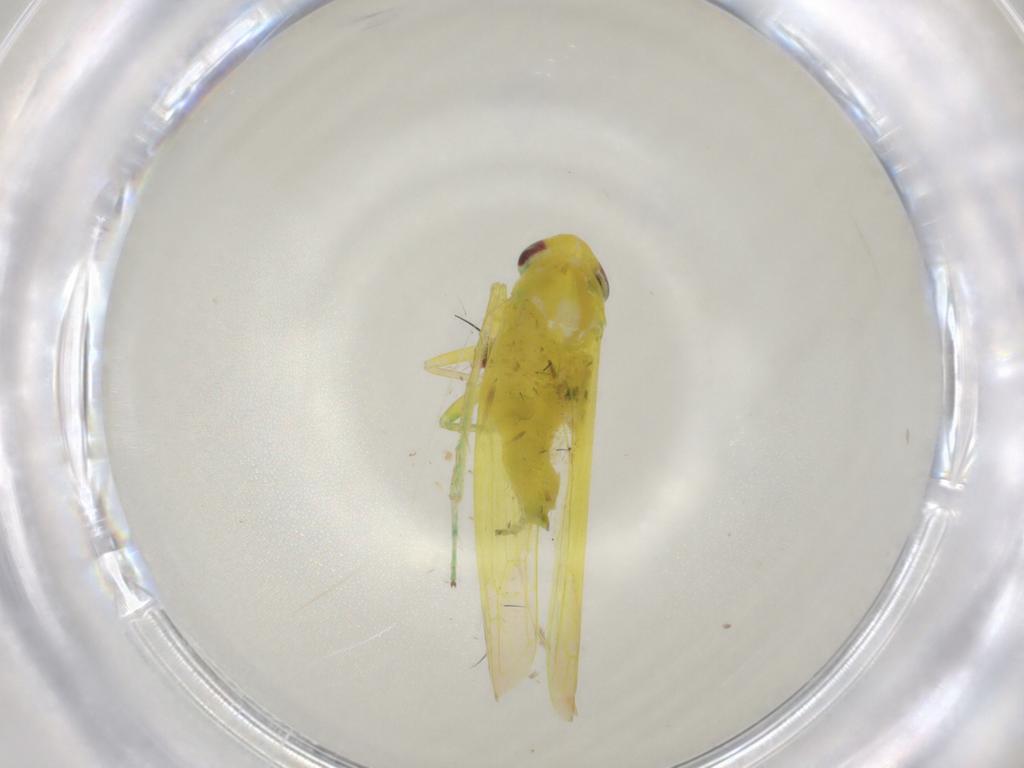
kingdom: Animalia
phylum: Arthropoda
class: Insecta
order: Hemiptera
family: Cicadellidae
